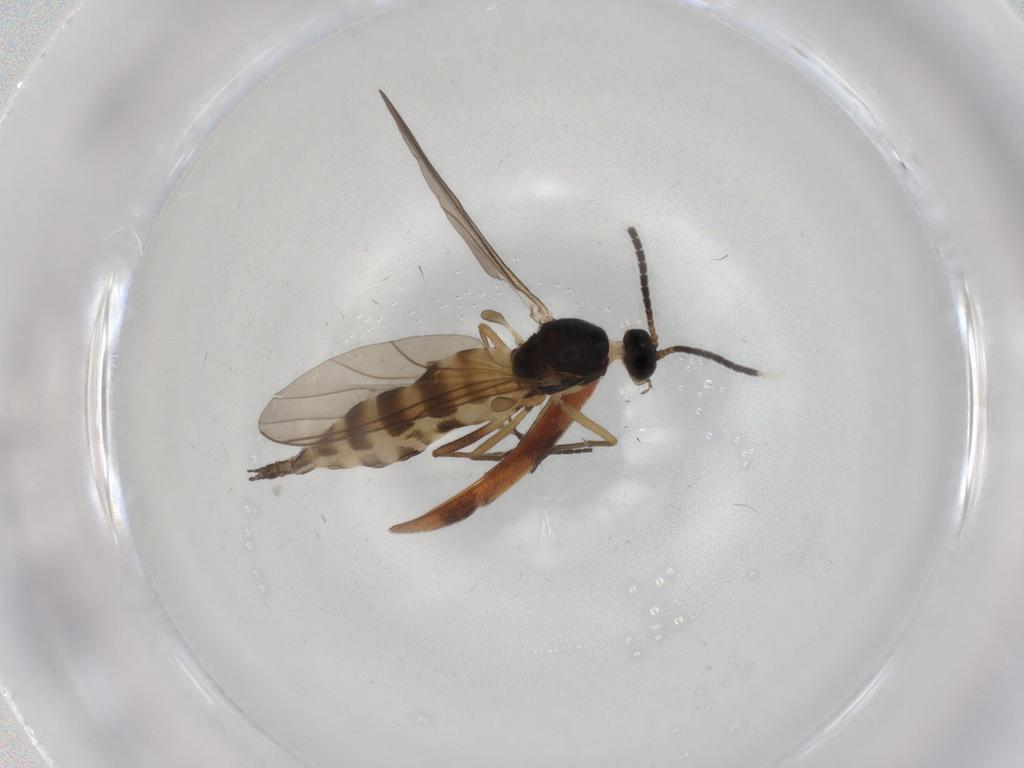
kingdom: Animalia
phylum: Arthropoda
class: Insecta
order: Diptera
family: Sciaridae
